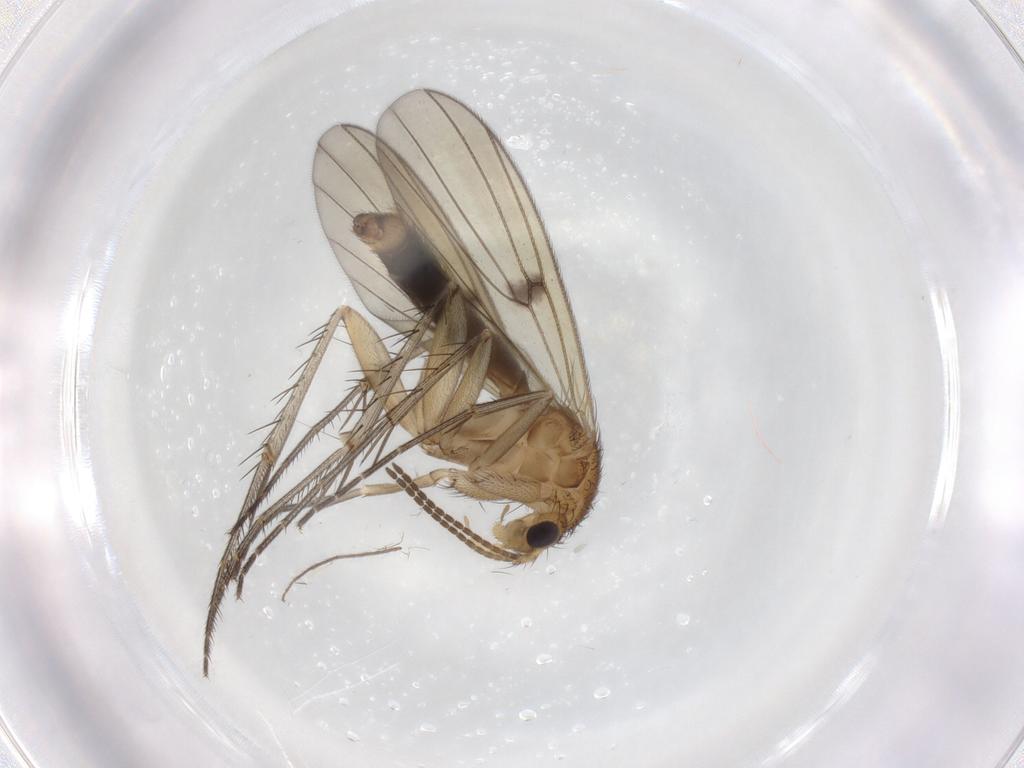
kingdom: Animalia
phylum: Arthropoda
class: Insecta
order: Diptera
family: Mycetophilidae
